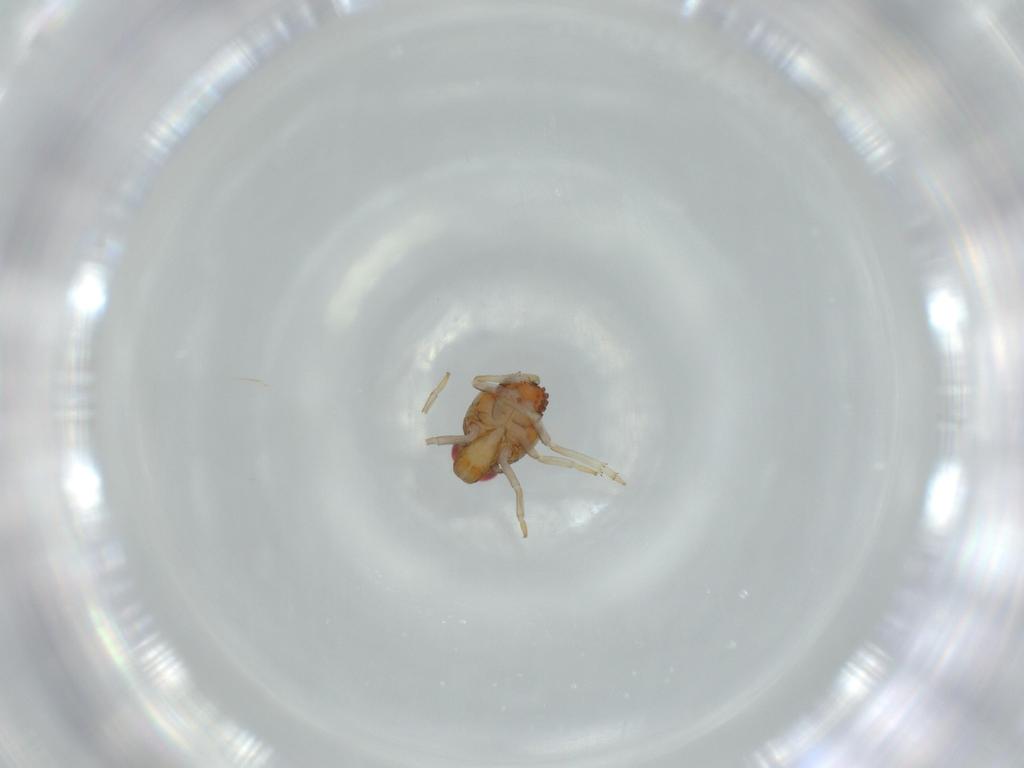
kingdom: Animalia
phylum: Arthropoda
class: Insecta
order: Hemiptera
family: Issidae
